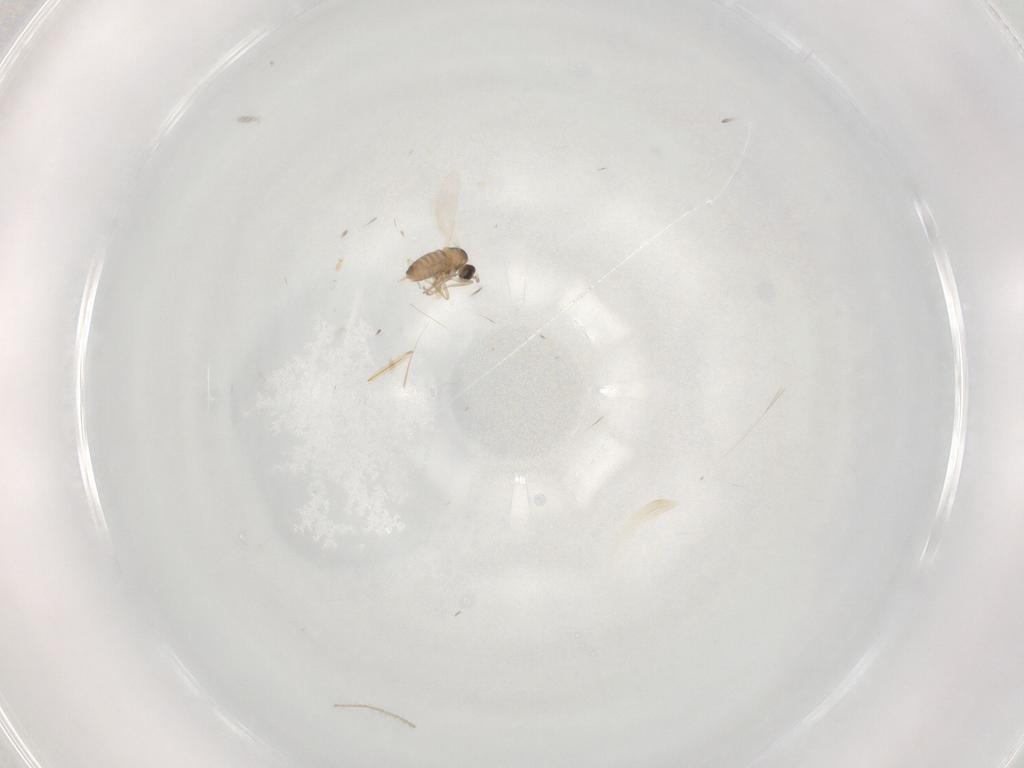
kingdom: Animalia
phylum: Arthropoda
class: Insecta
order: Diptera
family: Cecidomyiidae
